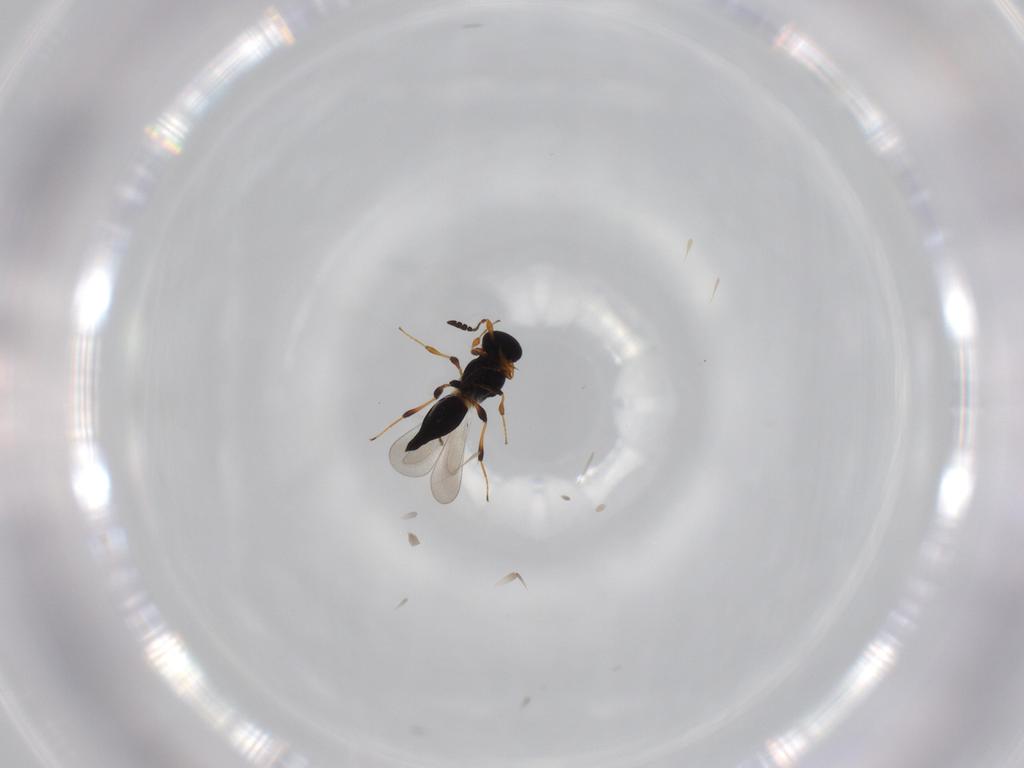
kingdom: Animalia
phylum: Arthropoda
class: Insecta
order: Hymenoptera
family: Platygastridae
